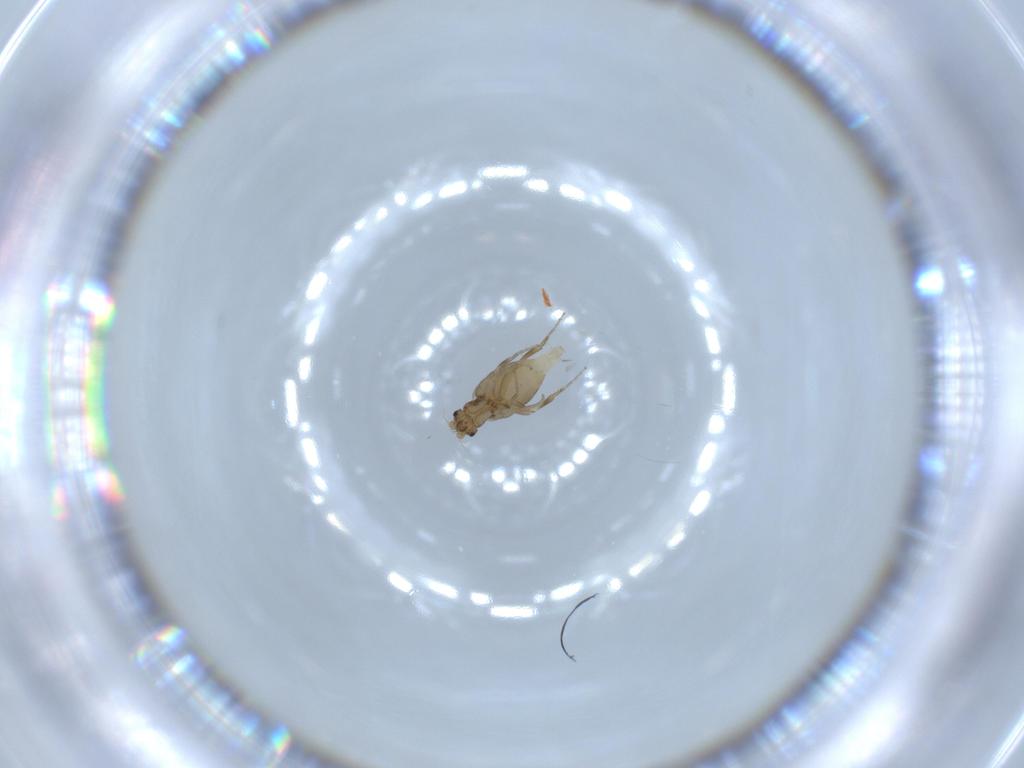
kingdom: Animalia
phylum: Arthropoda
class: Insecta
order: Diptera
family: Phoridae
